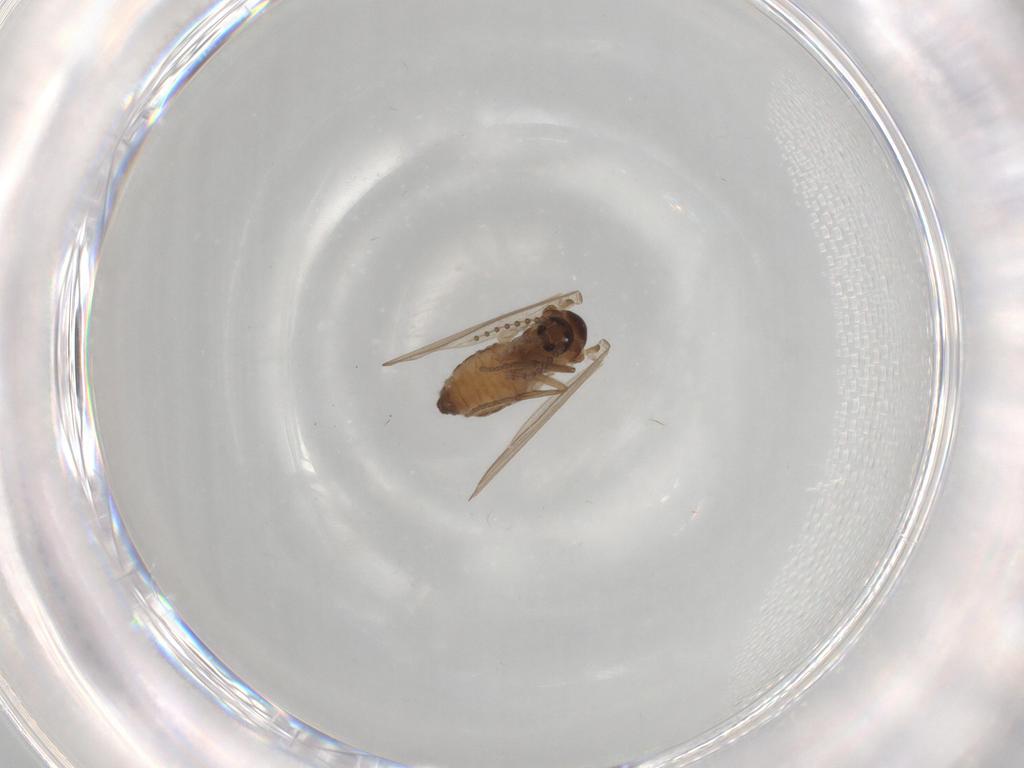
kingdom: Animalia
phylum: Arthropoda
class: Insecta
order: Diptera
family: Psychodidae
